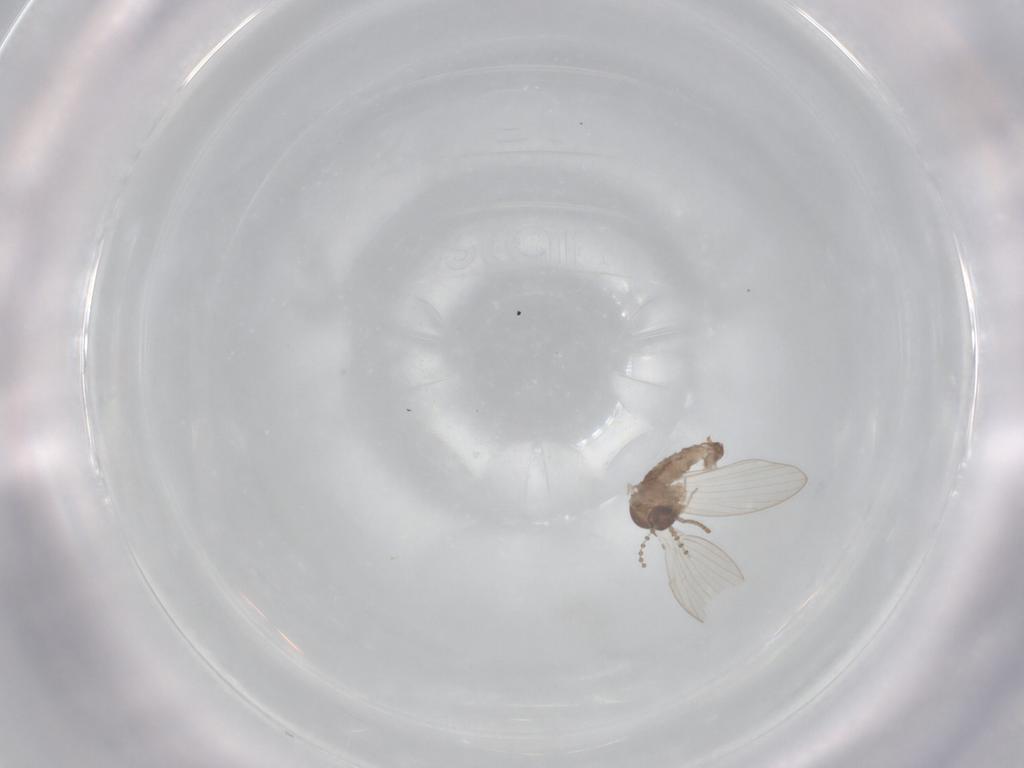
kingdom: Animalia
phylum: Arthropoda
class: Insecta
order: Diptera
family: Psychodidae
